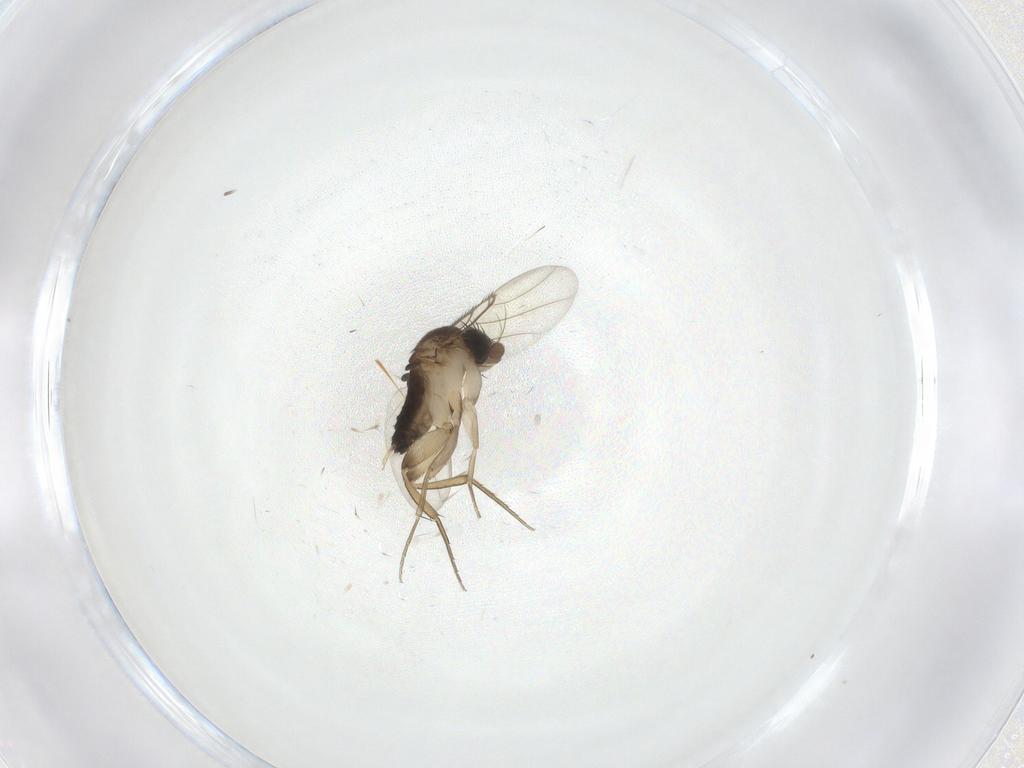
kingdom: Animalia
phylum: Arthropoda
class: Insecta
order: Diptera
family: Phoridae
